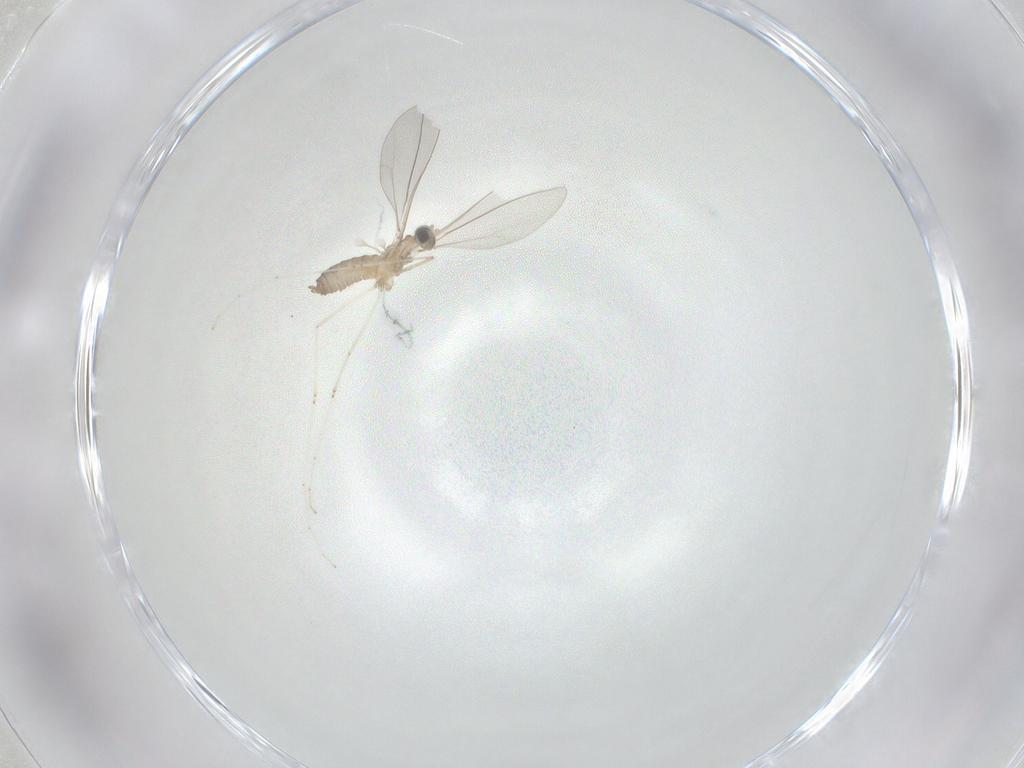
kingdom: Animalia
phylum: Arthropoda
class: Insecta
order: Diptera
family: Cecidomyiidae
